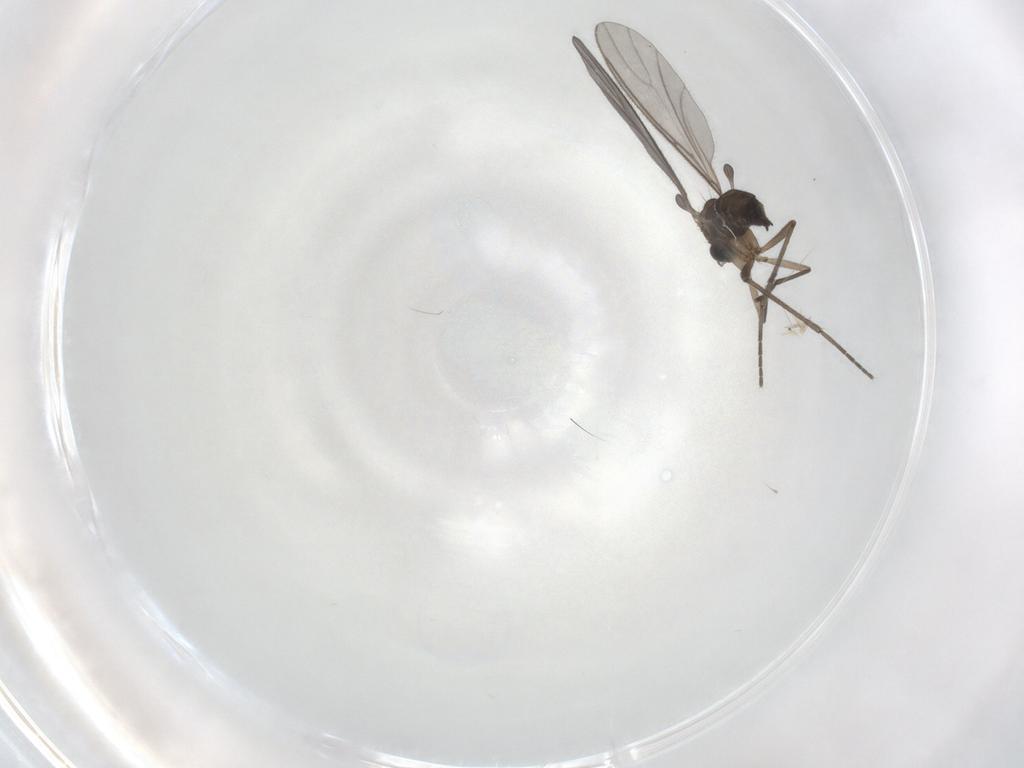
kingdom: Animalia
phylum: Arthropoda
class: Insecta
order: Diptera
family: Sciaridae
